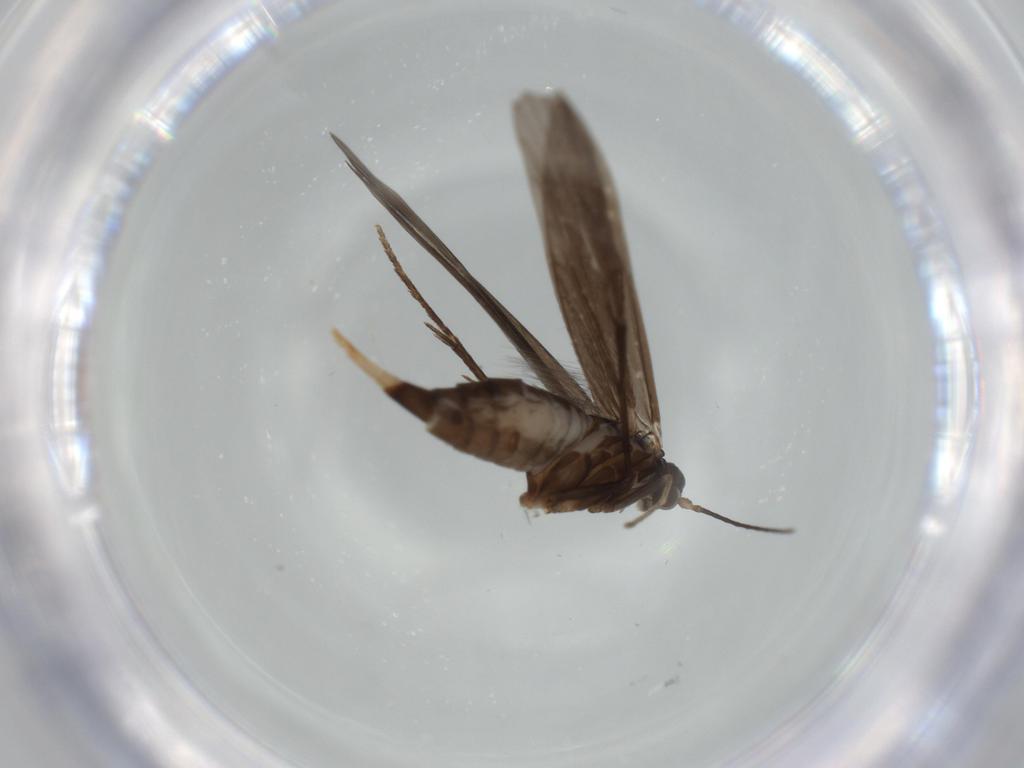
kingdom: Animalia
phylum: Arthropoda
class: Insecta
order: Trichoptera
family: Xiphocentronidae
